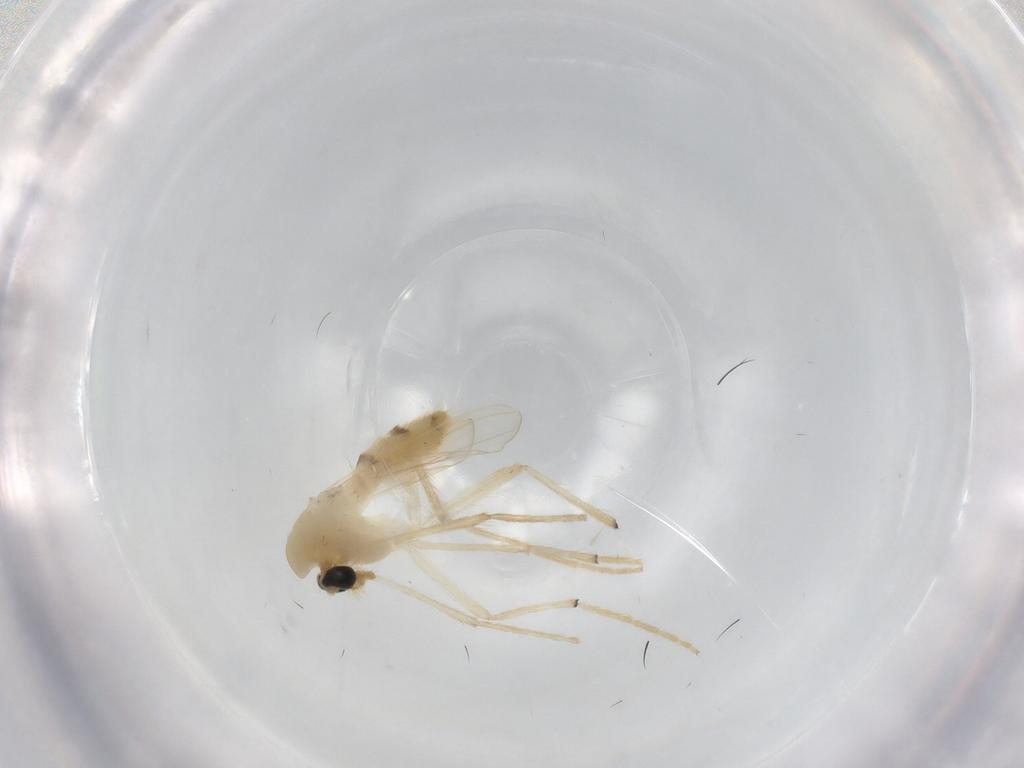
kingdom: Animalia
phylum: Arthropoda
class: Insecta
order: Diptera
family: Chironomidae
